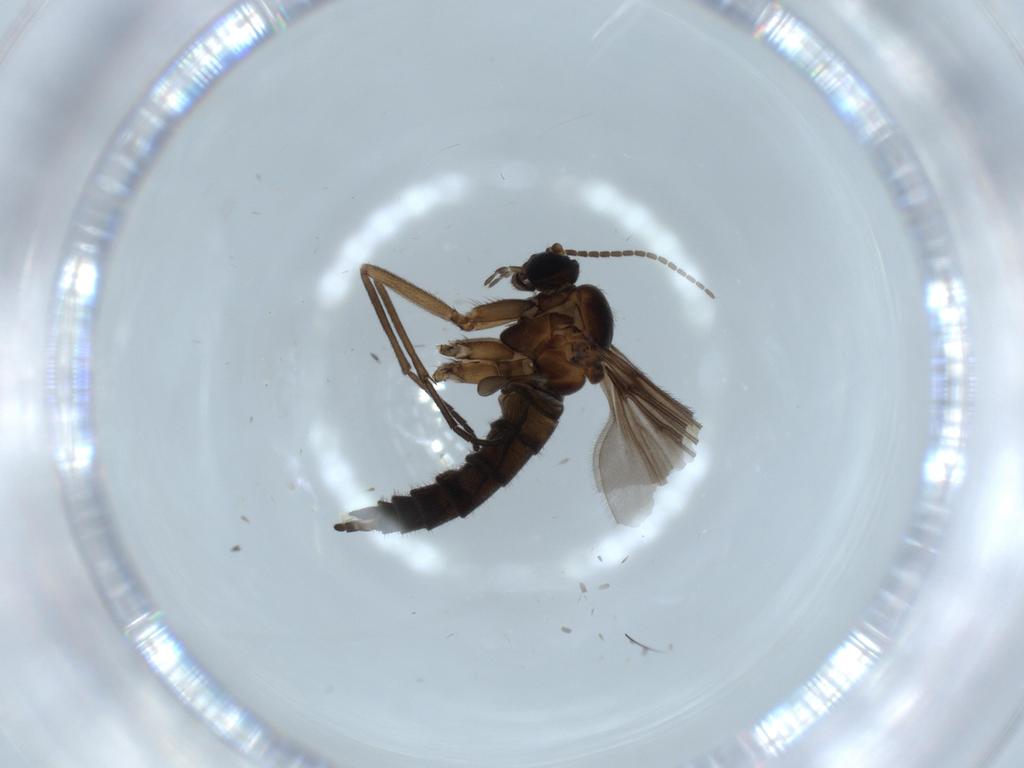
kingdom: Animalia
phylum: Arthropoda
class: Insecta
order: Diptera
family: Sciaridae
